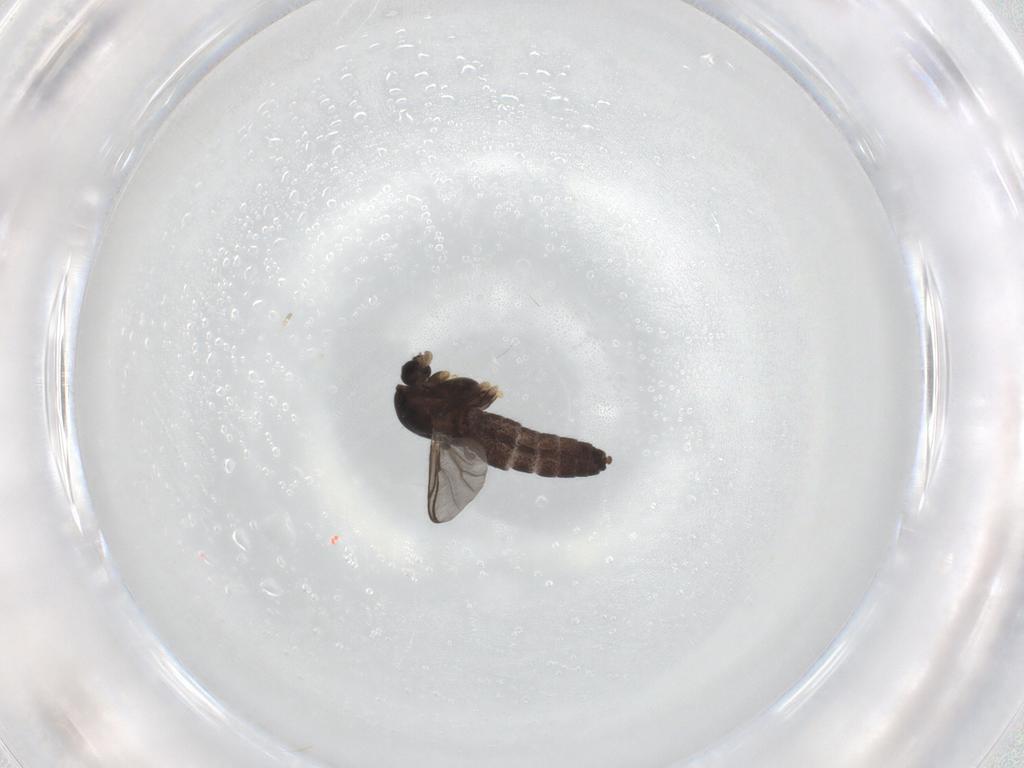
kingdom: Animalia
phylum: Arthropoda
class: Insecta
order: Diptera
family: Chironomidae
